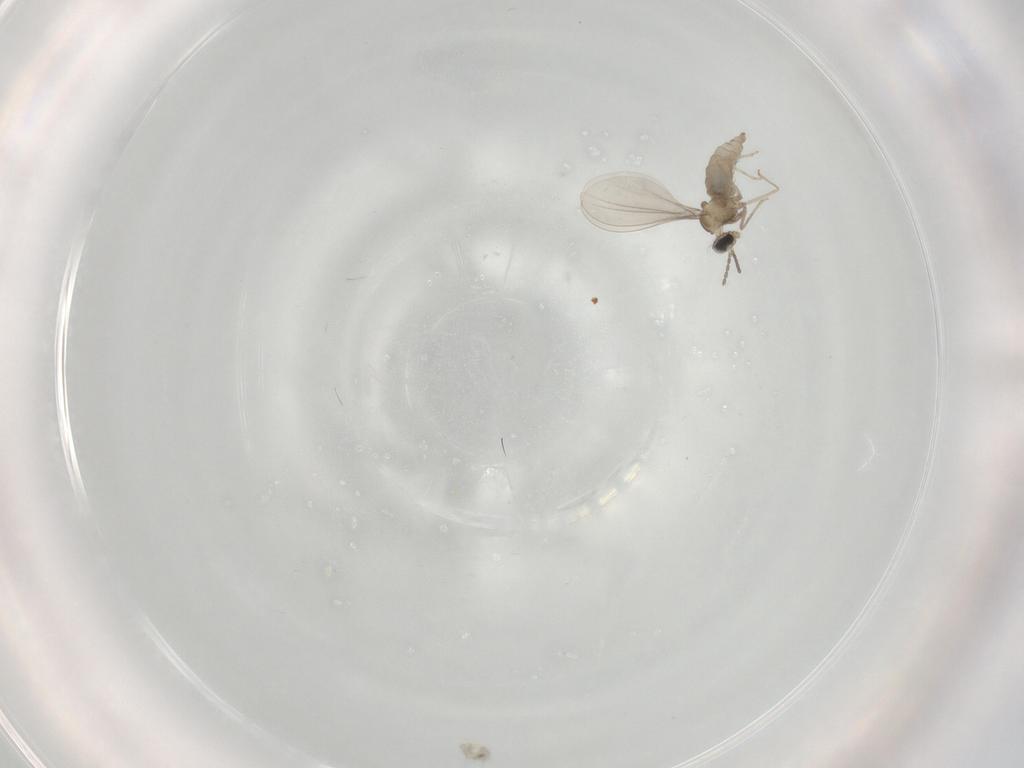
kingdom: Animalia
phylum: Arthropoda
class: Insecta
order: Diptera
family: Cecidomyiidae
